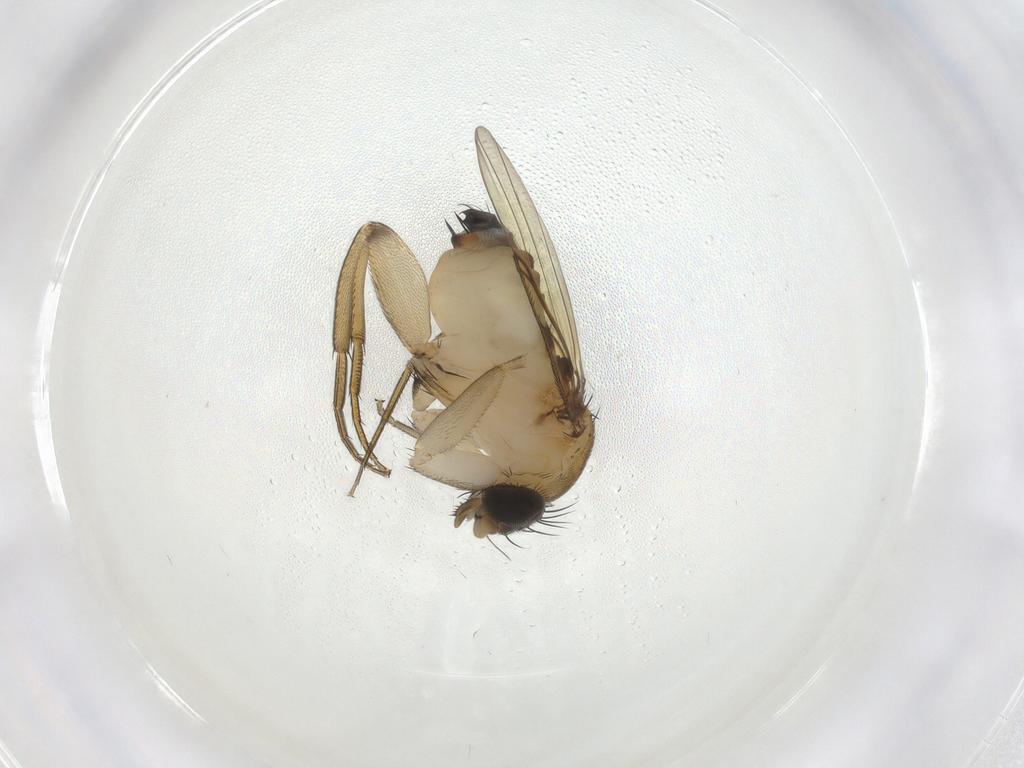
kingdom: Animalia
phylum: Arthropoda
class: Insecta
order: Diptera
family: Phoridae
